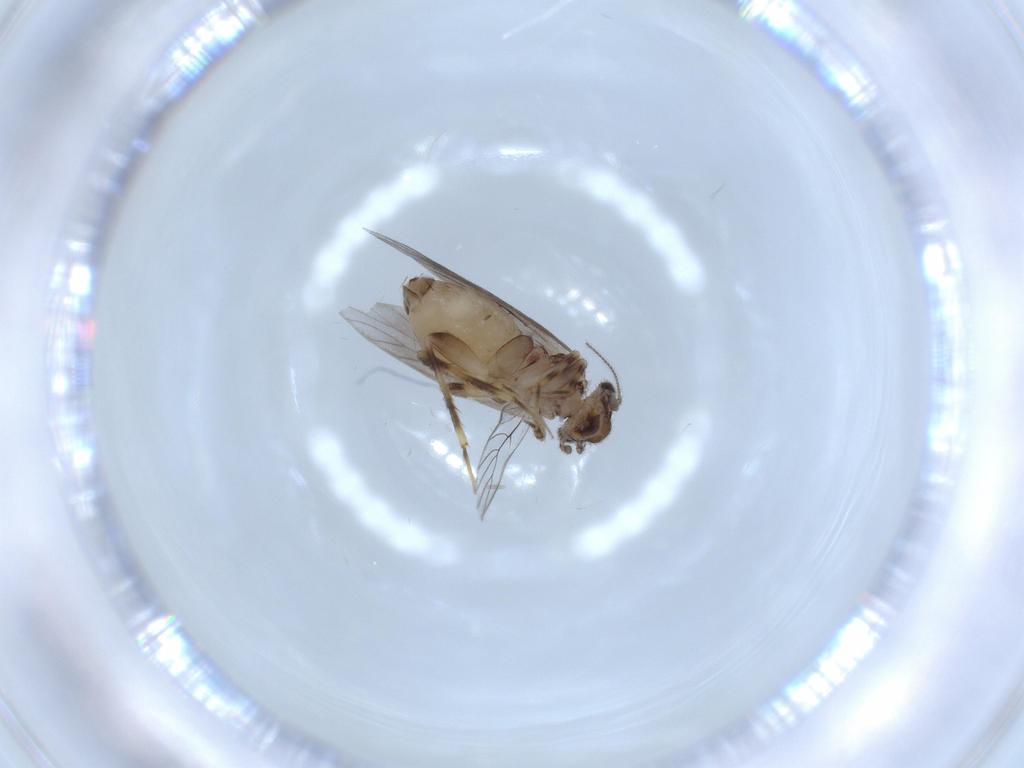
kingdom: Animalia
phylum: Arthropoda
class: Insecta
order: Psocodea
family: Lepidopsocidae
